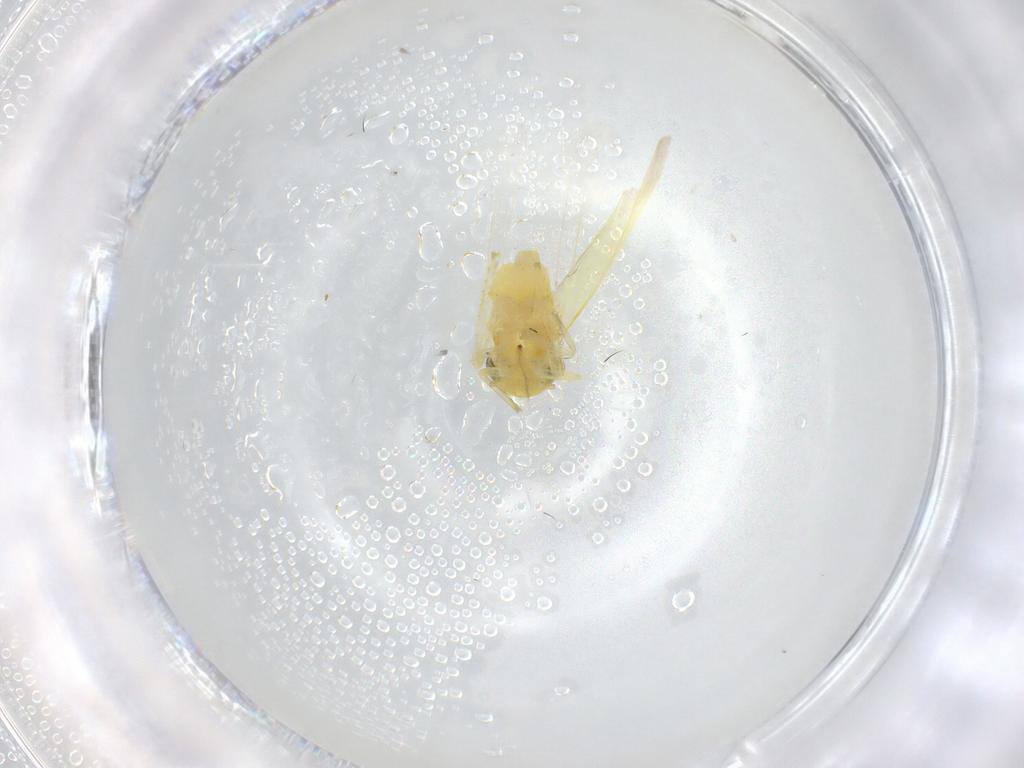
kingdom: Animalia
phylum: Arthropoda
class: Insecta
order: Hemiptera
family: Cicadellidae
